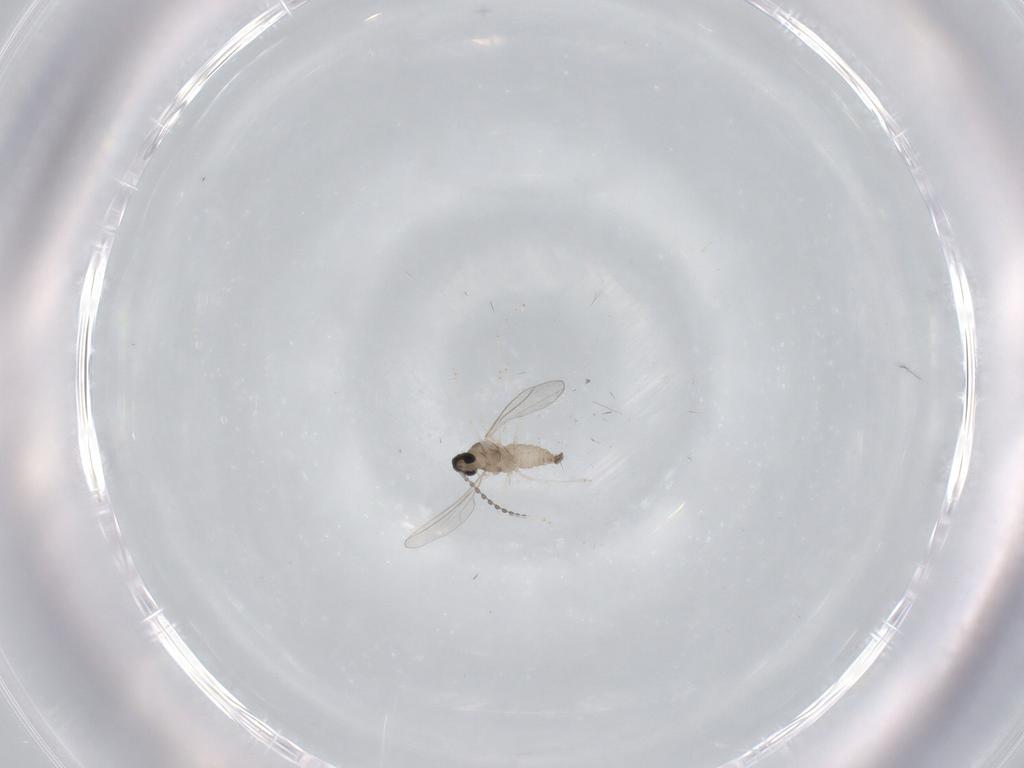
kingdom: Animalia
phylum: Arthropoda
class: Insecta
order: Diptera
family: Cecidomyiidae
